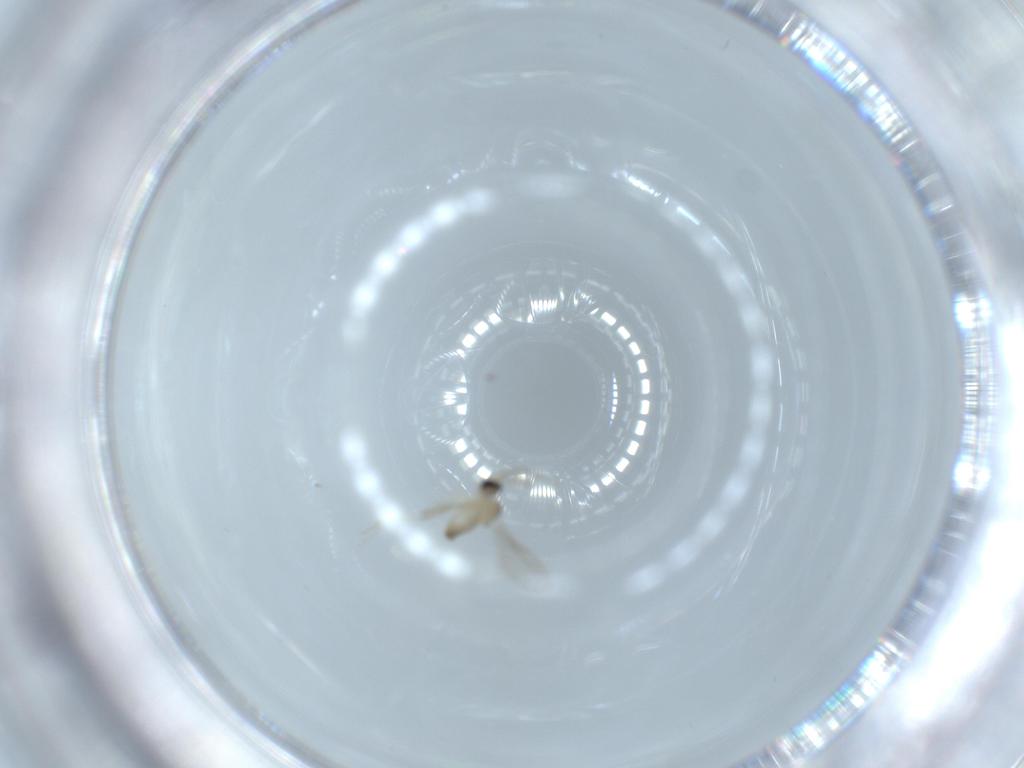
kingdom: Animalia
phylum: Arthropoda
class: Insecta
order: Diptera
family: Cecidomyiidae
